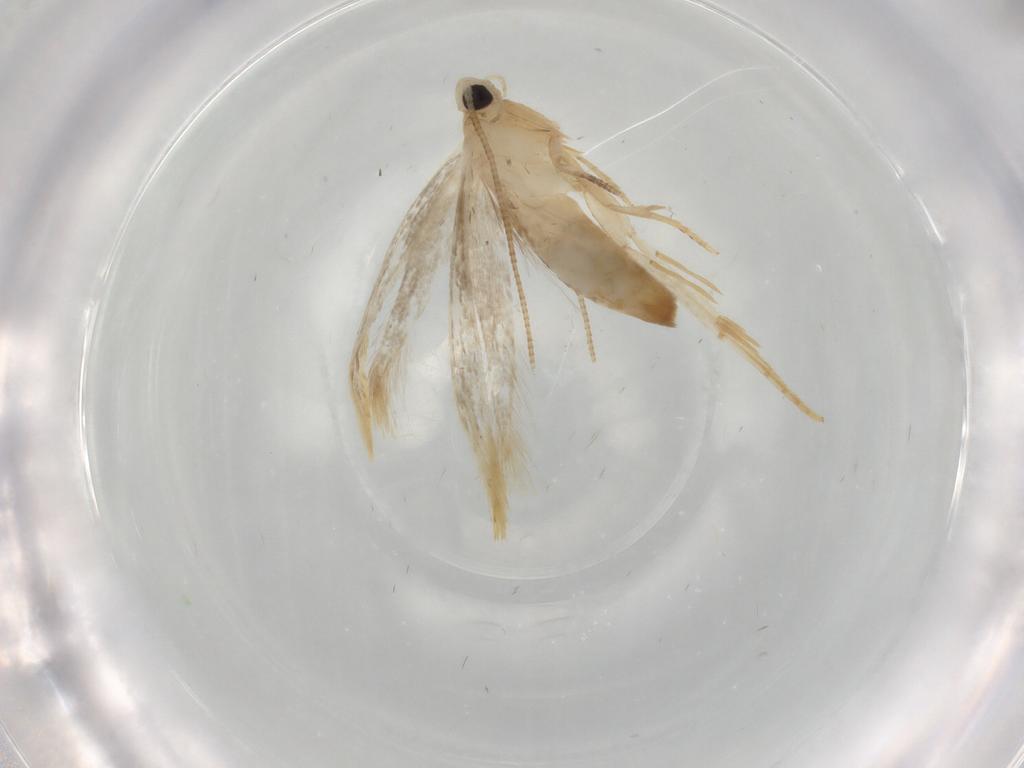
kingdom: Animalia
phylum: Arthropoda
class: Insecta
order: Lepidoptera
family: Tineidae
